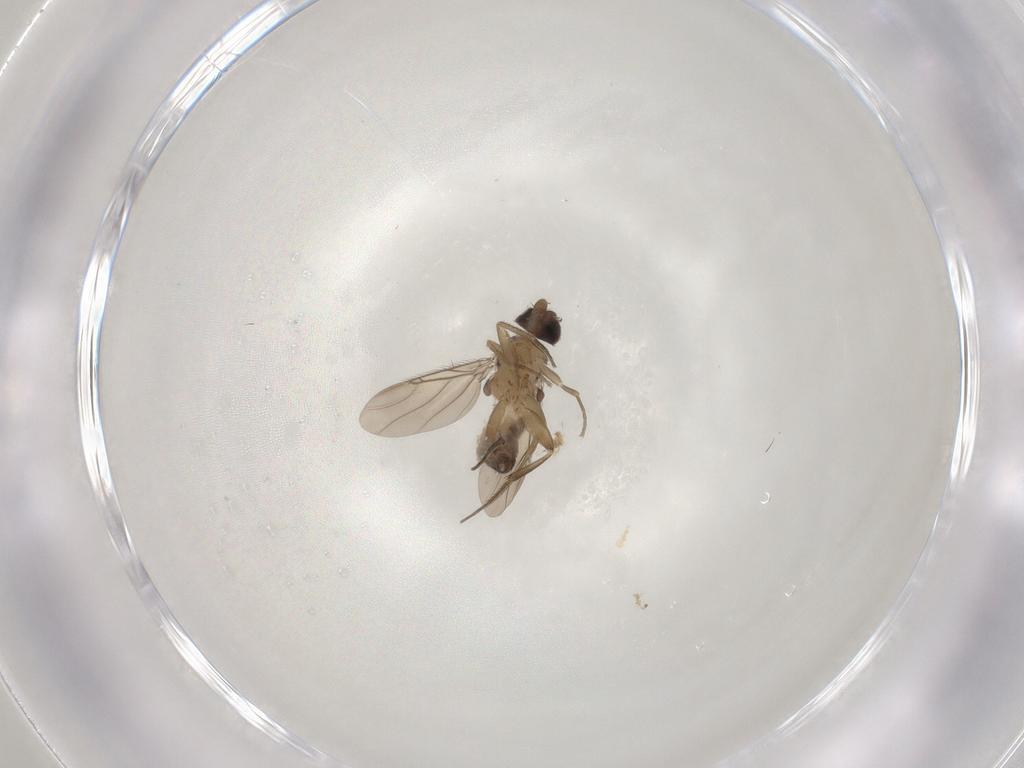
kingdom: Animalia
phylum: Arthropoda
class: Insecta
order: Diptera
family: Phoridae
